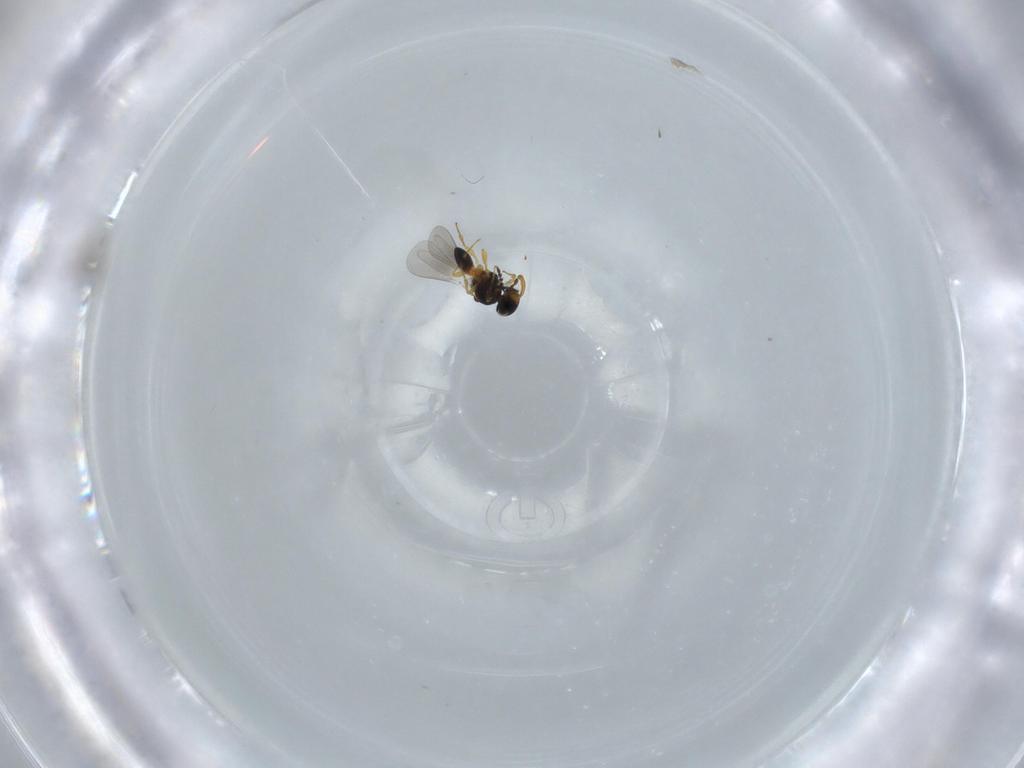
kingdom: Animalia
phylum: Arthropoda
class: Insecta
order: Hymenoptera
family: Platygastridae
